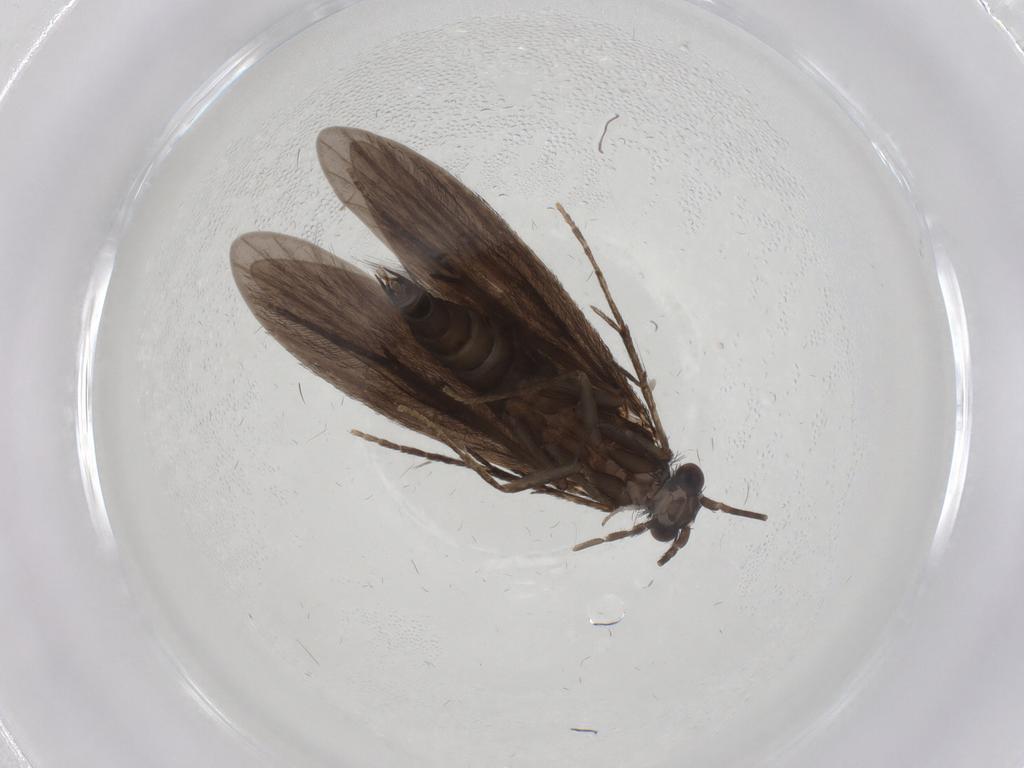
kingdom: Animalia
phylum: Arthropoda
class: Insecta
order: Trichoptera
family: Xiphocentronidae
